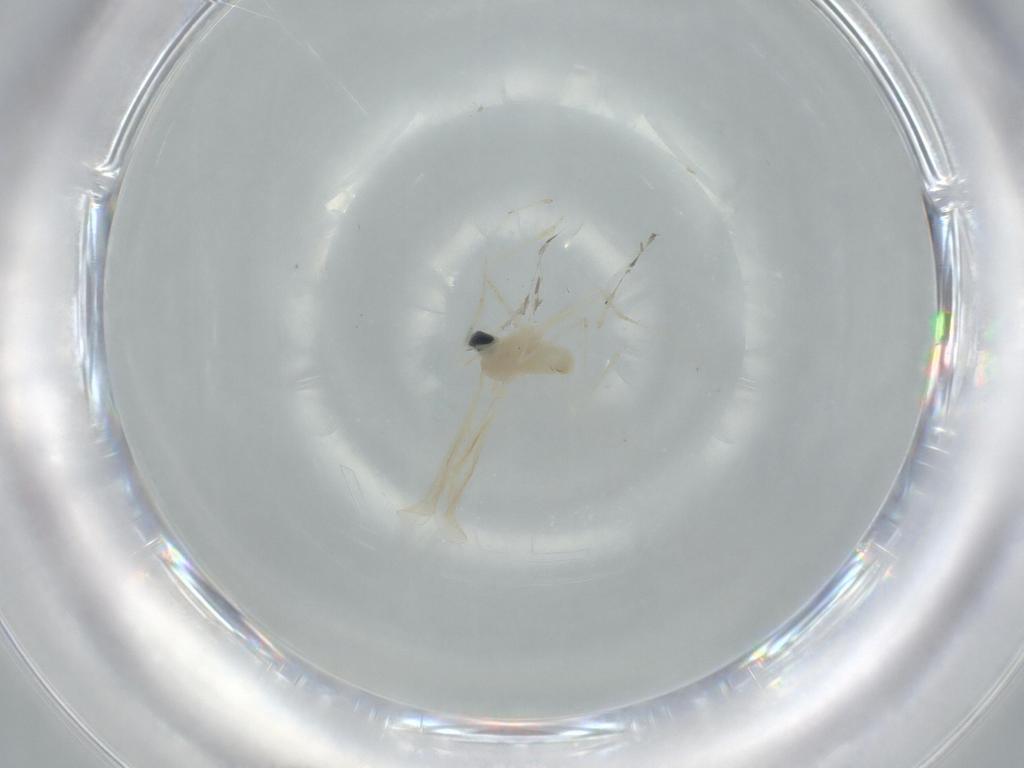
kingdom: Animalia
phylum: Arthropoda
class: Insecta
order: Diptera
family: Cecidomyiidae
